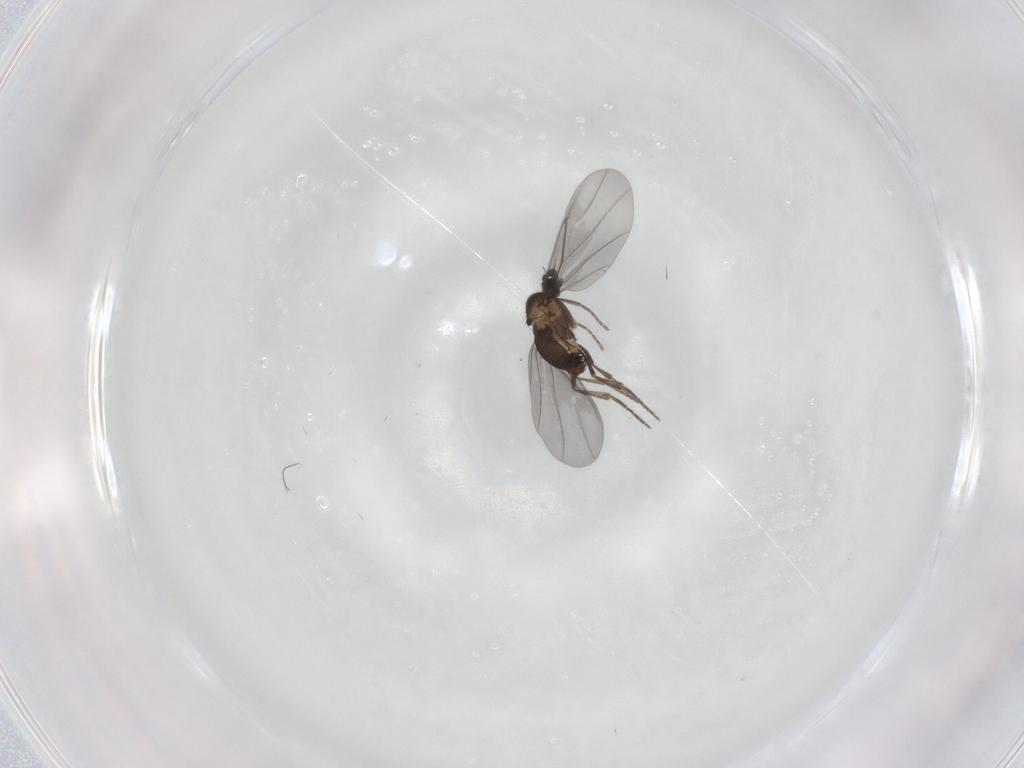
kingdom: Animalia
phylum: Arthropoda
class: Insecta
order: Diptera
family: Phoridae
